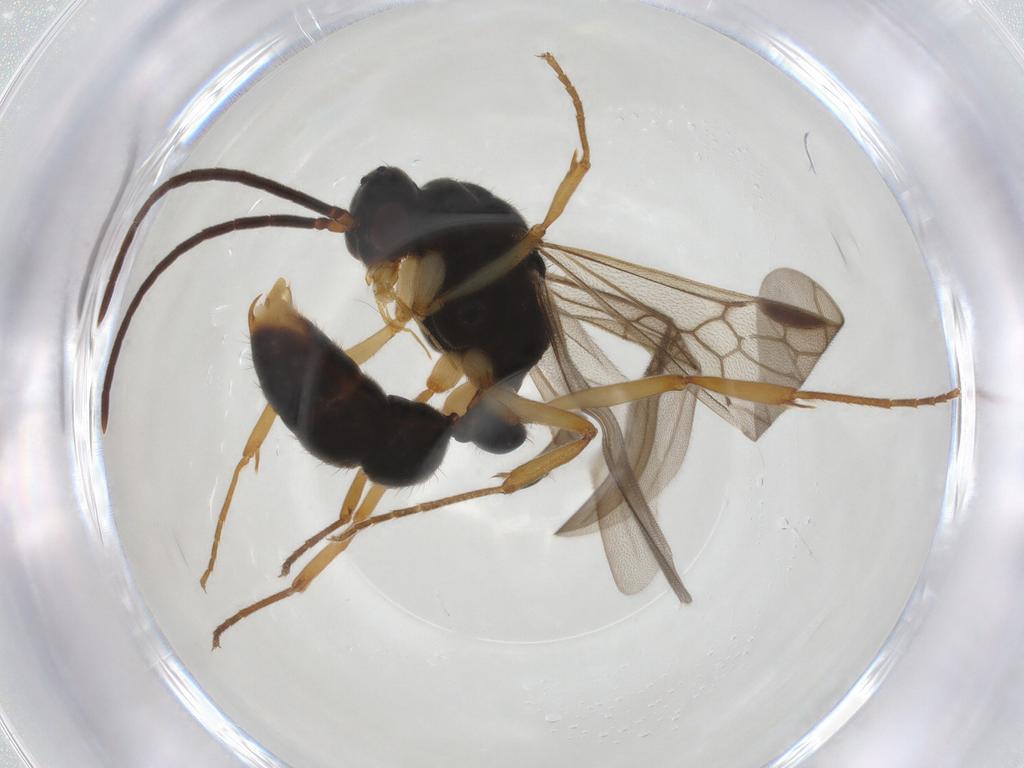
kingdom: Animalia
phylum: Arthropoda
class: Insecta
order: Hymenoptera
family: Formicidae
